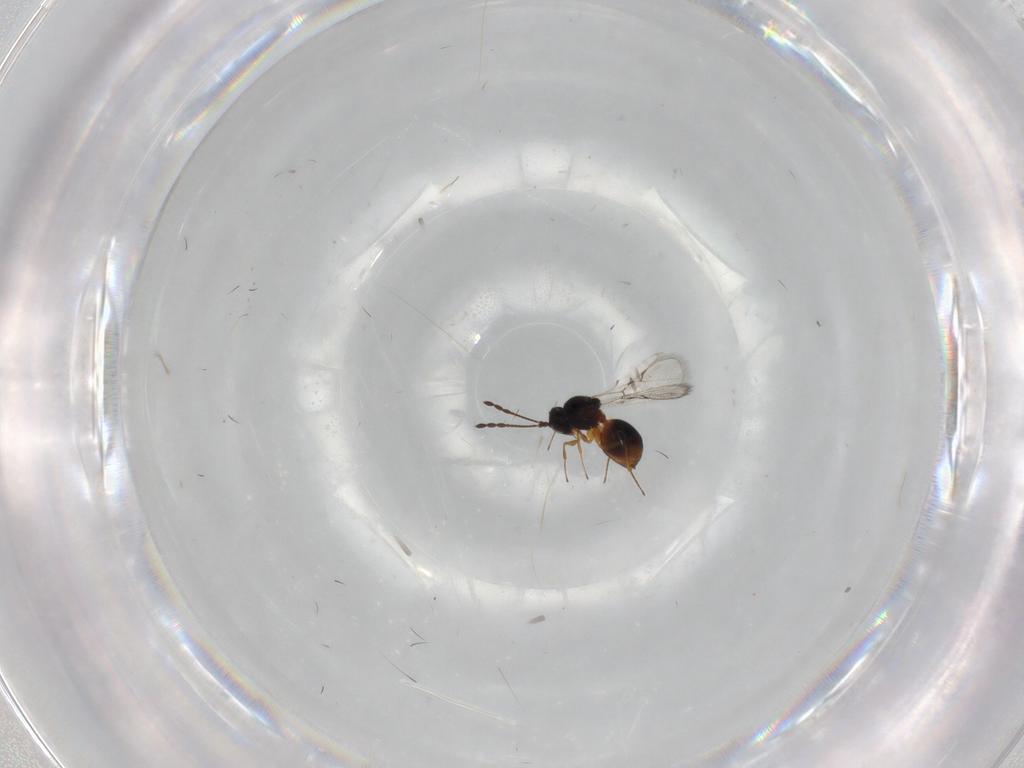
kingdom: Animalia
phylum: Arthropoda
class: Insecta
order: Hymenoptera
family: Figitidae
